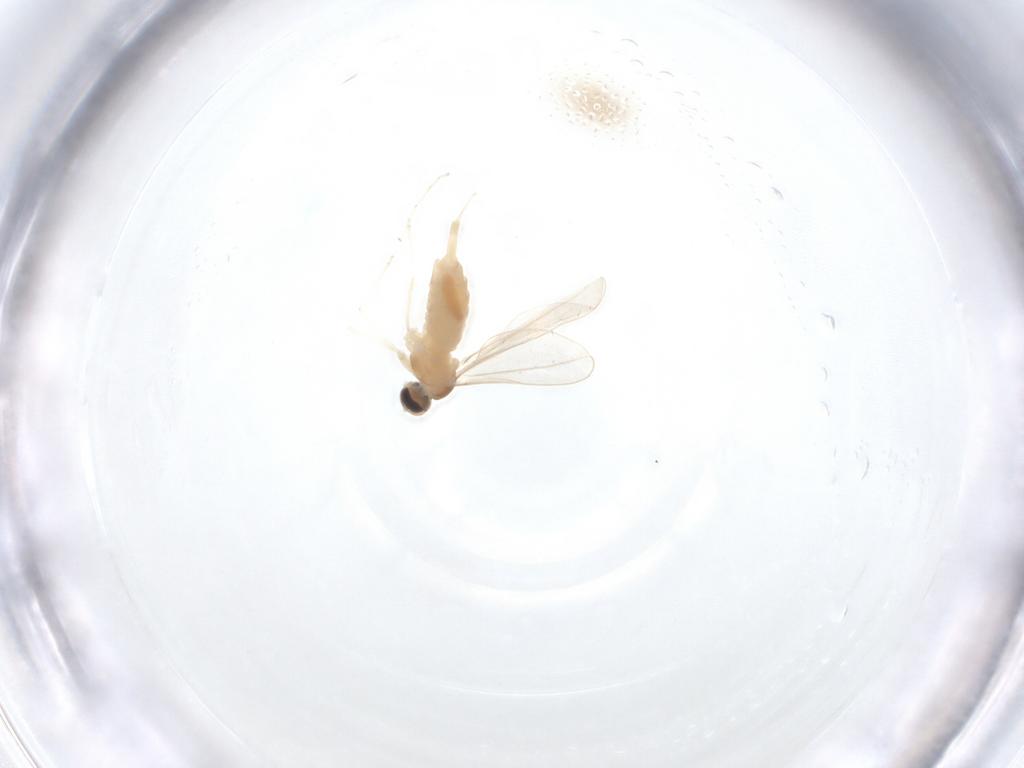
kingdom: Animalia
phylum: Arthropoda
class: Insecta
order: Diptera
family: Cecidomyiidae
